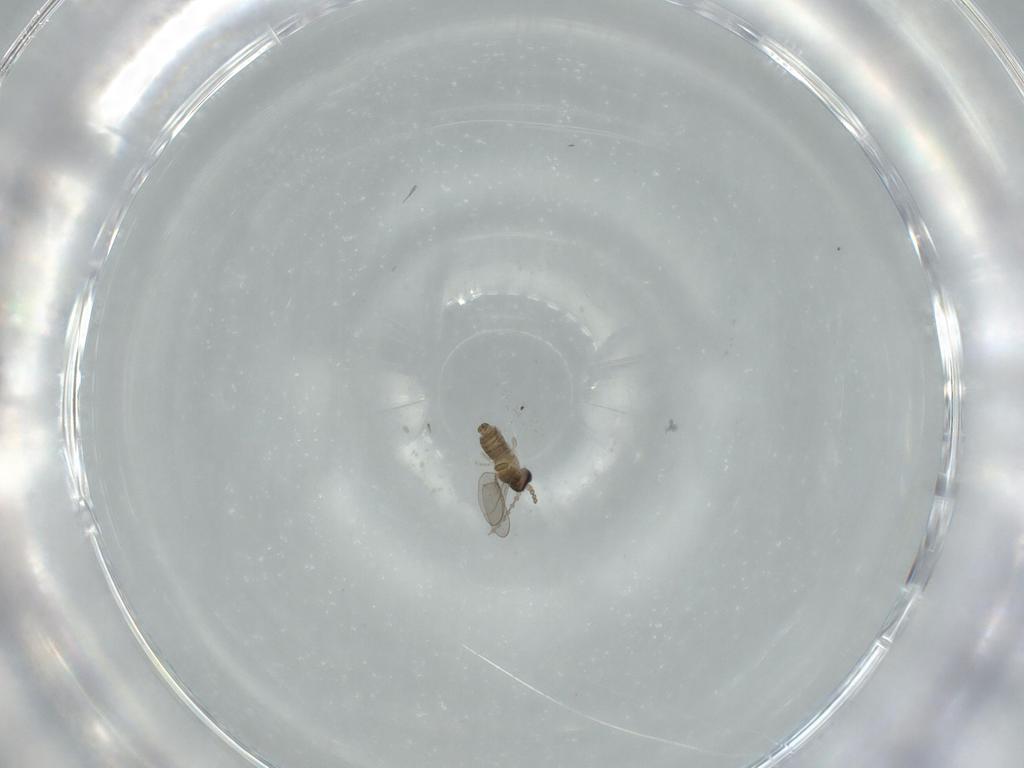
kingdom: Animalia
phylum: Arthropoda
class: Insecta
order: Diptera
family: Cecidomyiidae
